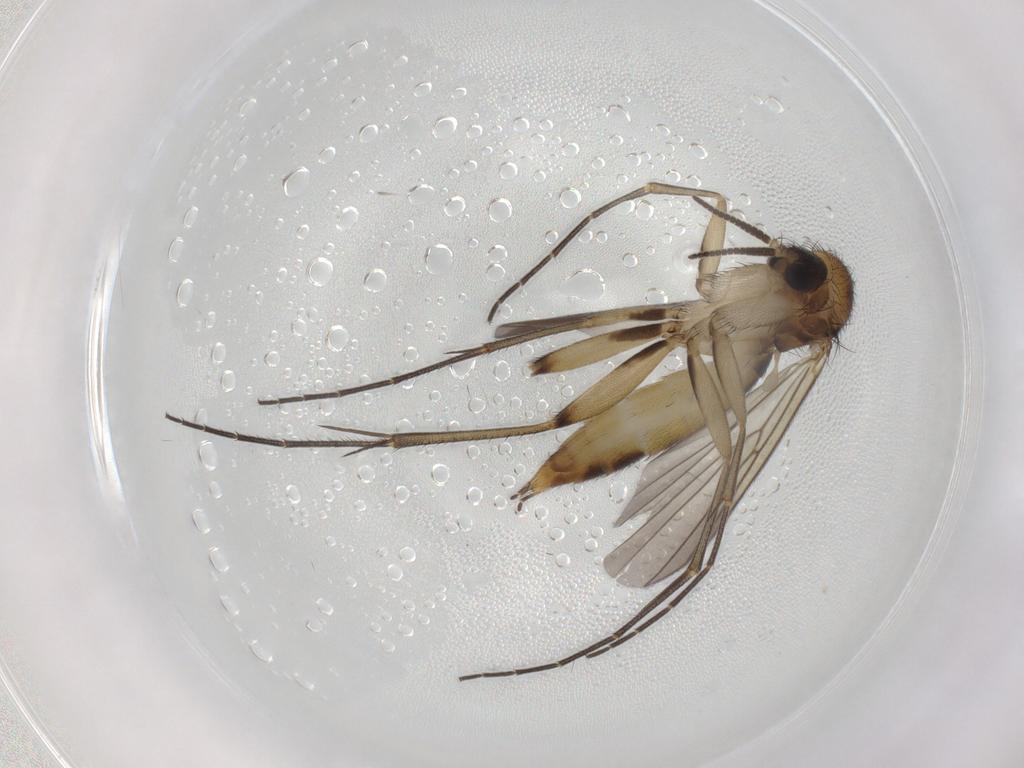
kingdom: Animalia
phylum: Arthropoda
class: Insecta
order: Diptera
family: Mycetophilidae
